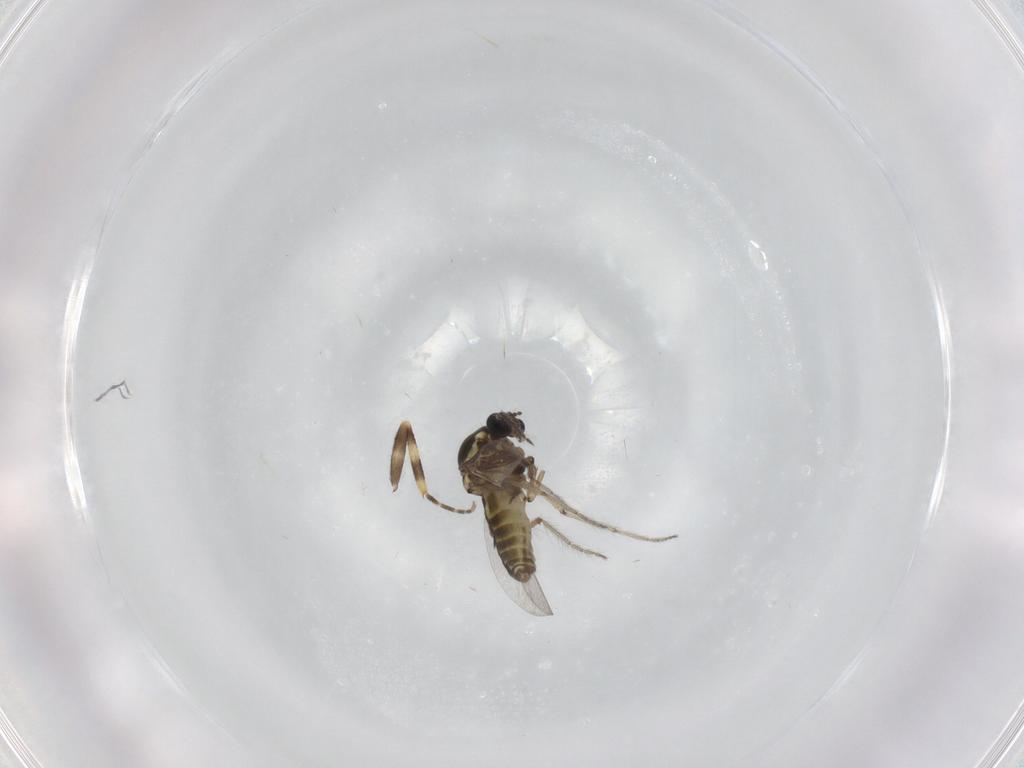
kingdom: Animalia
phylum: Arthropoda
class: Insecta
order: Diptera
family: Ceratopogonidae
